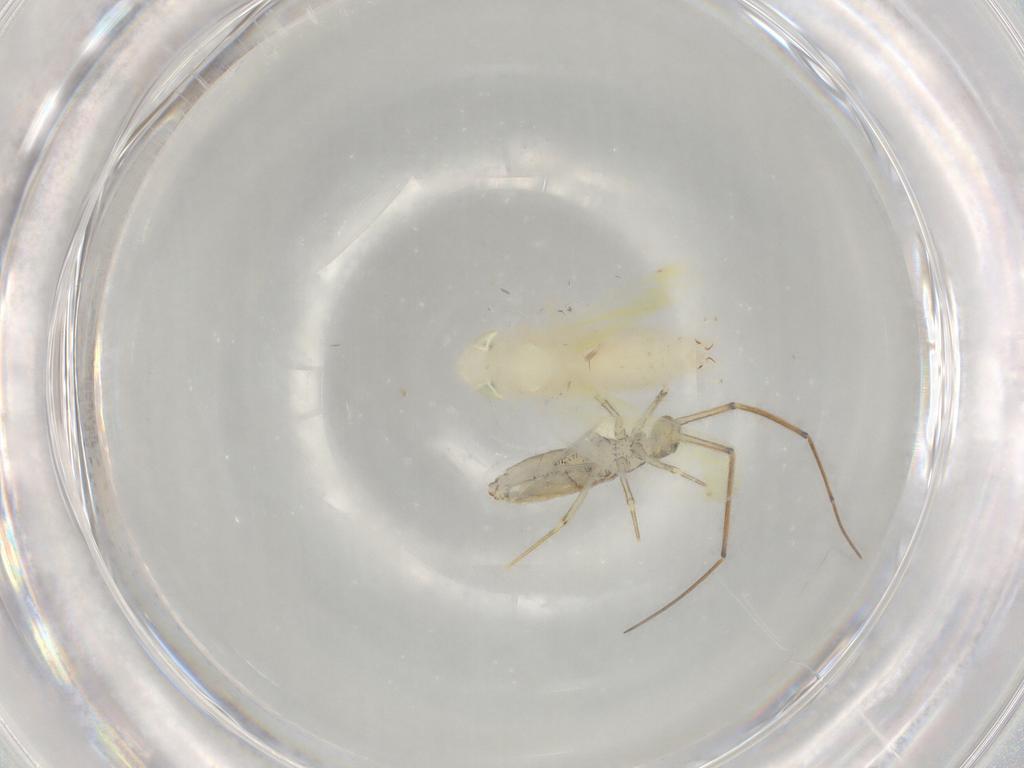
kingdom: Animalia
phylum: Arthropoda
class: Insecta
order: Hemiptera
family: Cicadellidae
